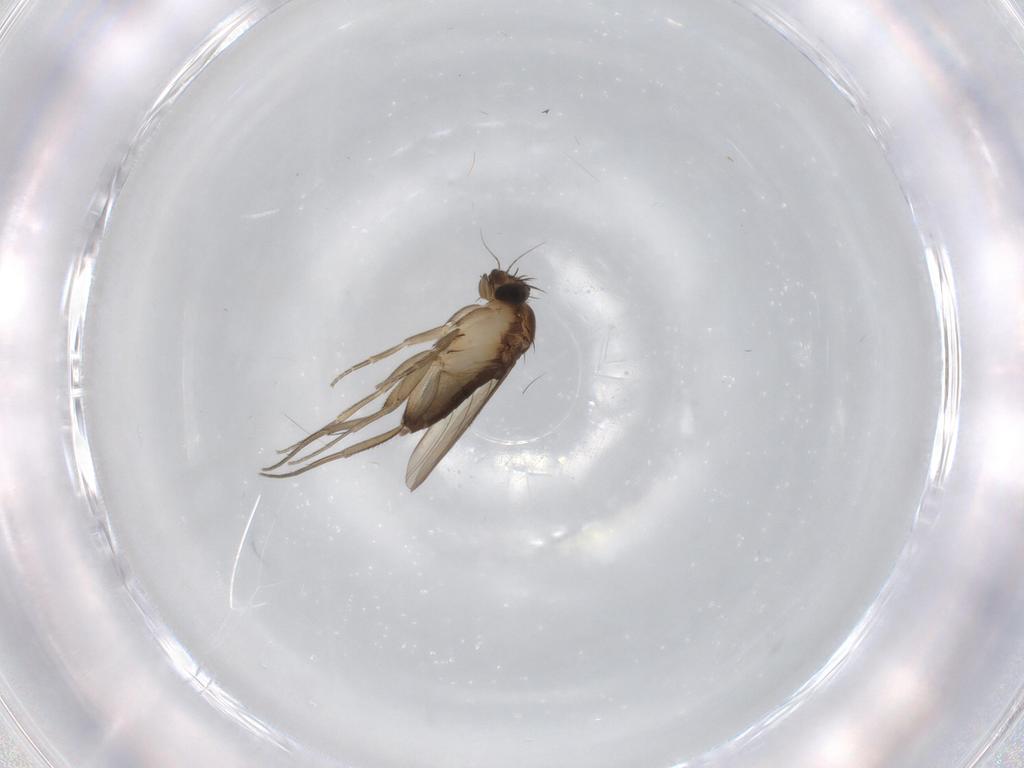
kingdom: Animalia
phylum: Arthropoda
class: Insecta
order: Diptera
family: Phoridae
